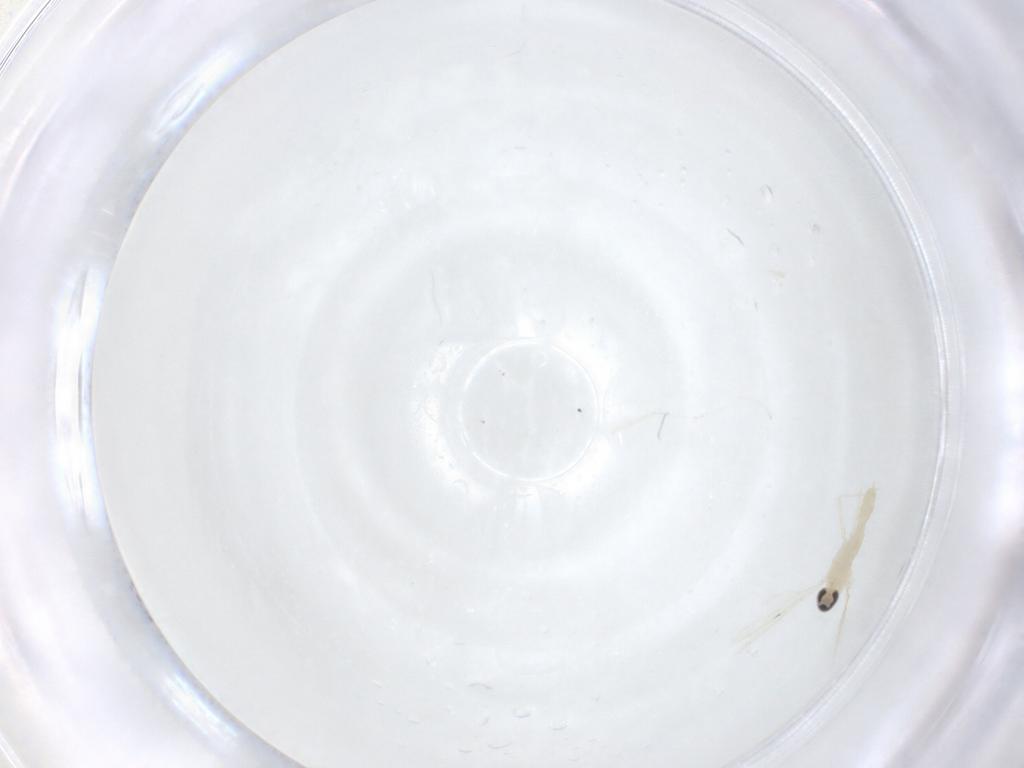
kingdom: Animalia
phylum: Arthropoda
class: Insecta
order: Diptera
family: Cecidomyiidae
